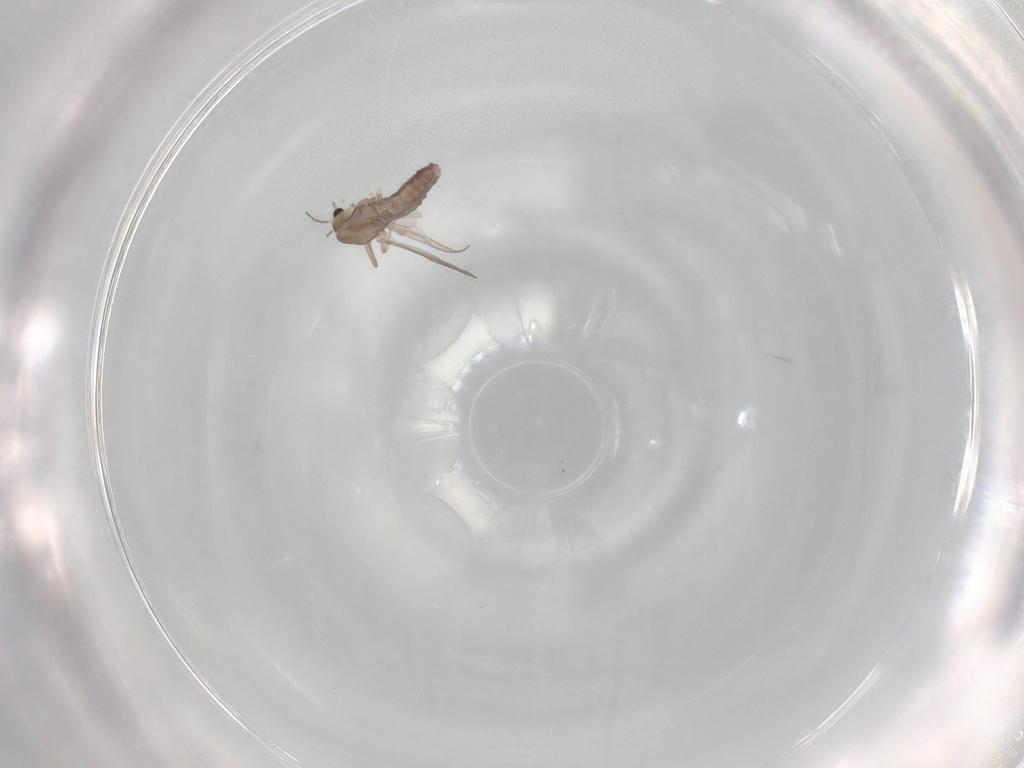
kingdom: Animalia
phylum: Arthropoda
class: Insecta
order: Diptera
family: Chironomidae
